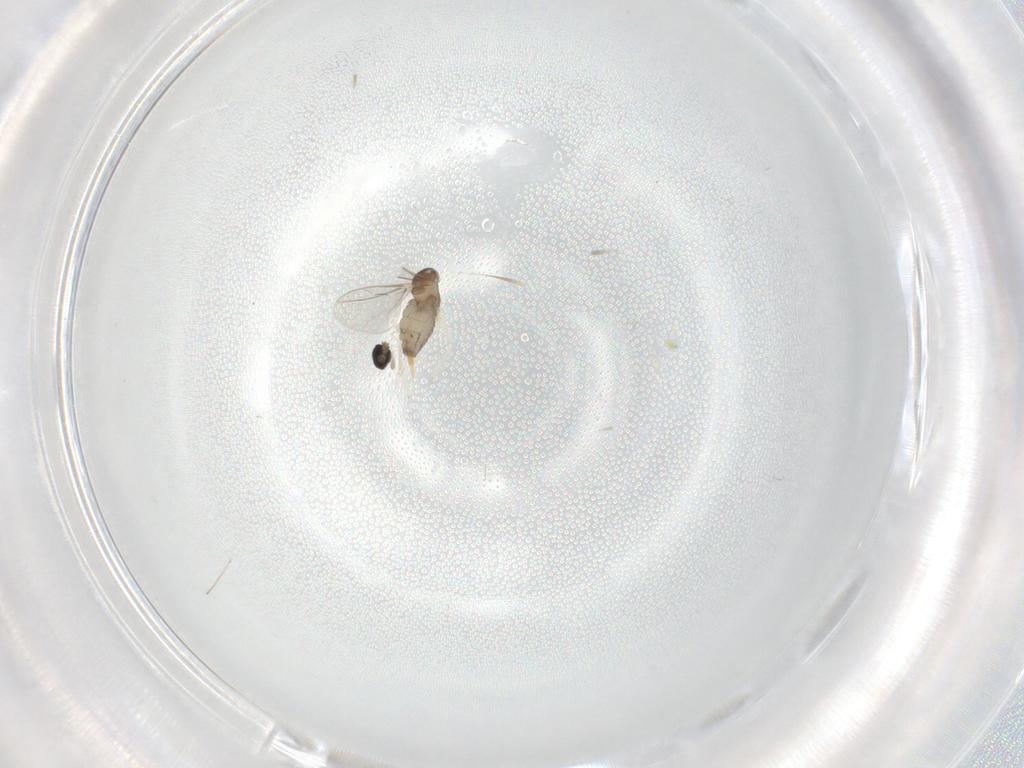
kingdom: Animalia
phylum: Arthropoda
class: Insecta
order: Diptera
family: Cecidomyiidae
